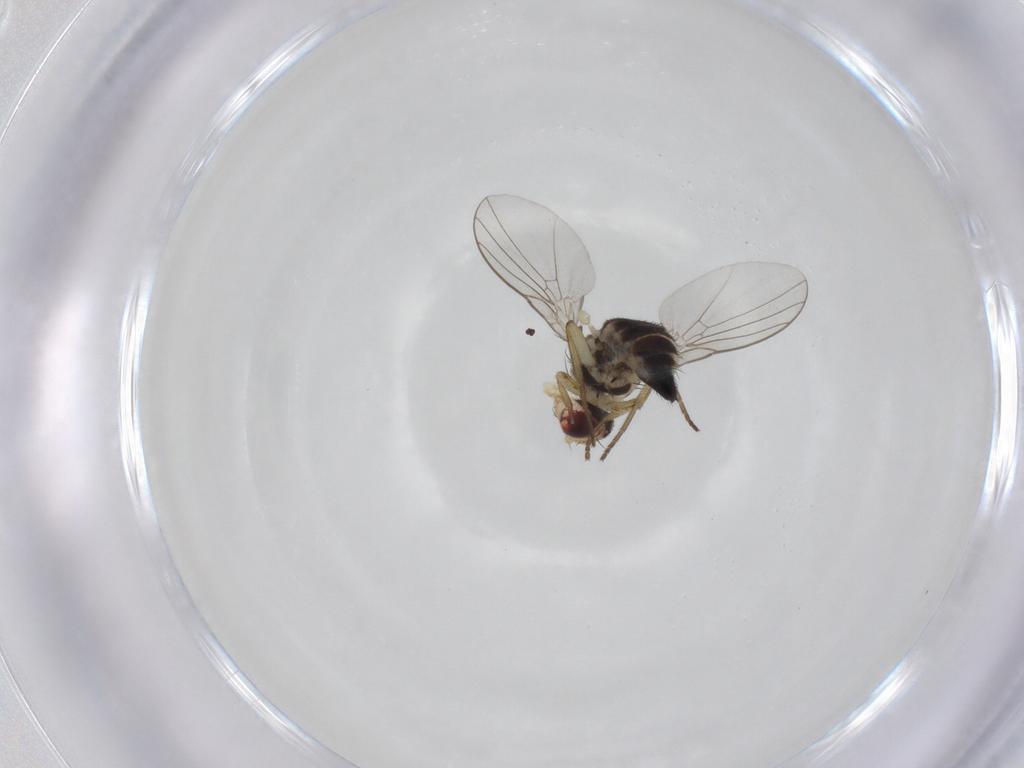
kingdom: Animalia
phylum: Arthropoda
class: Insecta
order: Diptera
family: Agromyzidae
